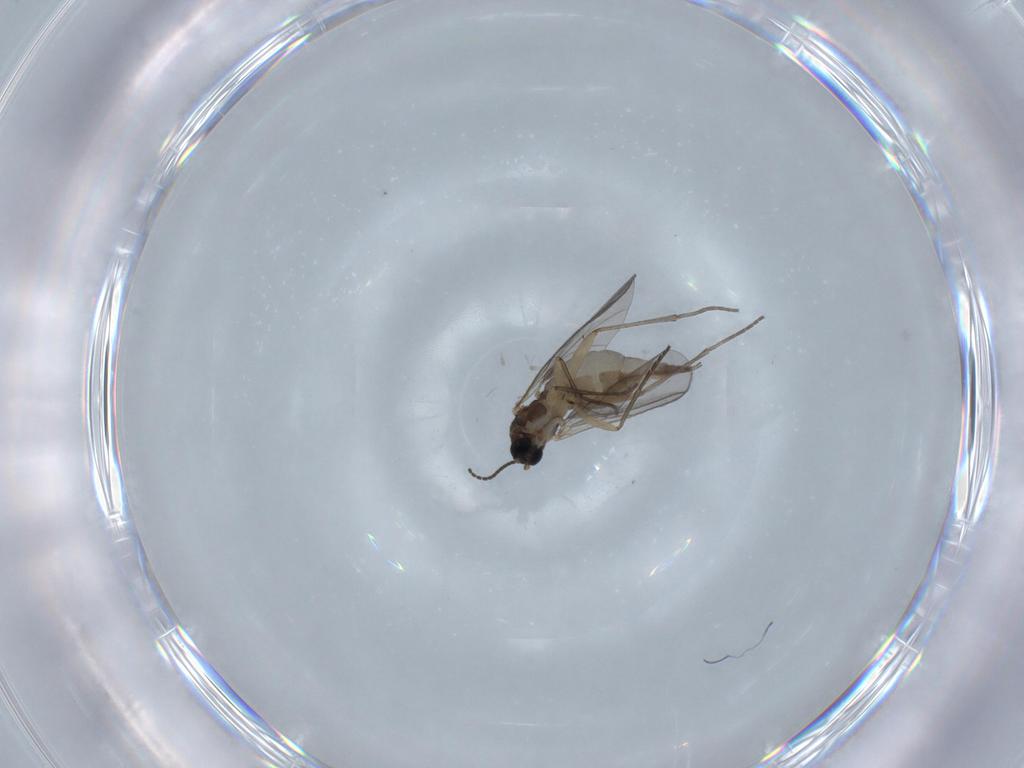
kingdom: Animalia
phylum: Arthropoda
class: Insecta
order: Diptera
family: Sciaridae
